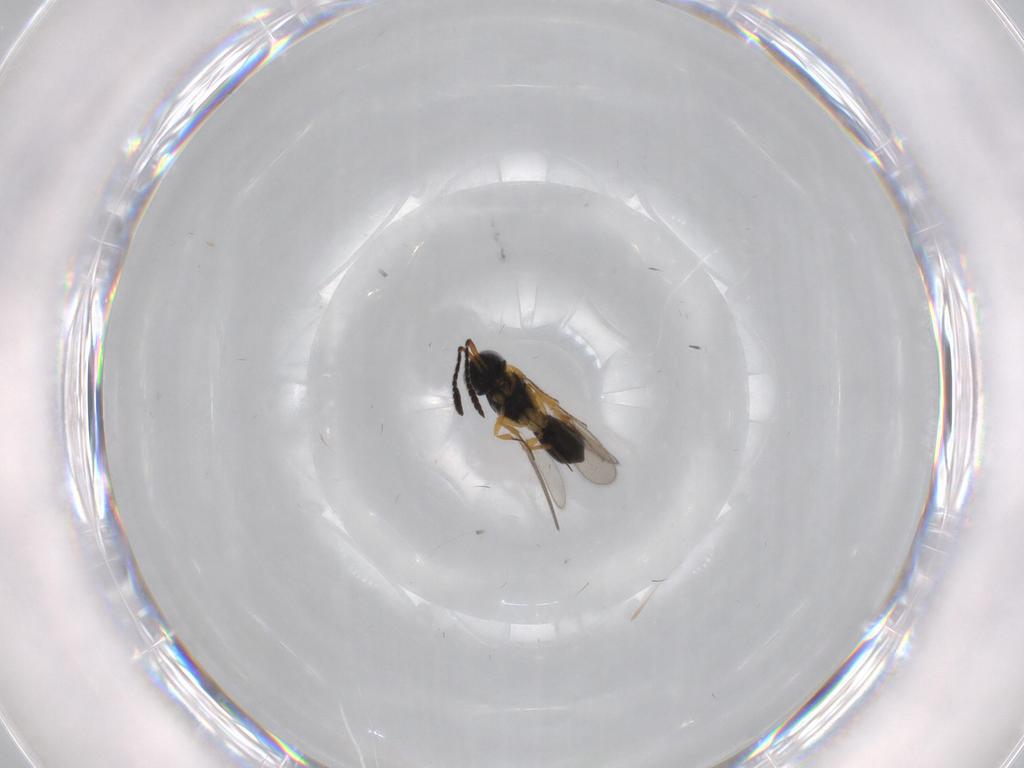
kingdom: Animalia
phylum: Arthropoda
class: Insecta
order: Hymenoptera
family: Scelionidae
